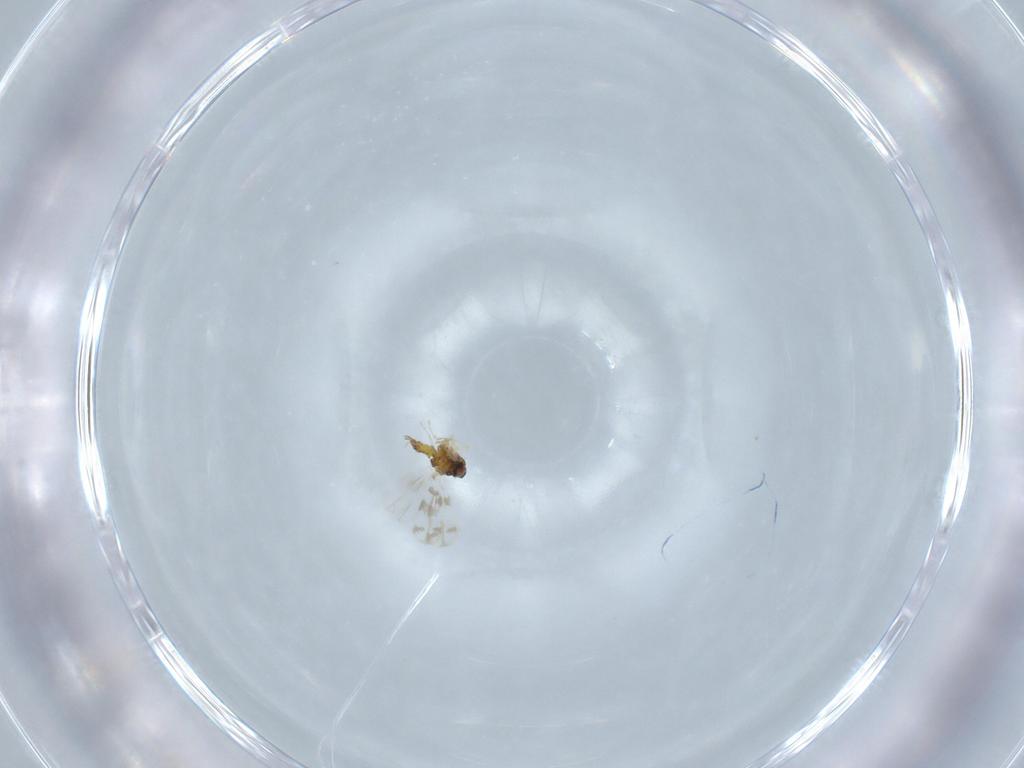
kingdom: Animalia
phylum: Arthropoda
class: Insecta
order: Hemiptera
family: Aleyrodidae
